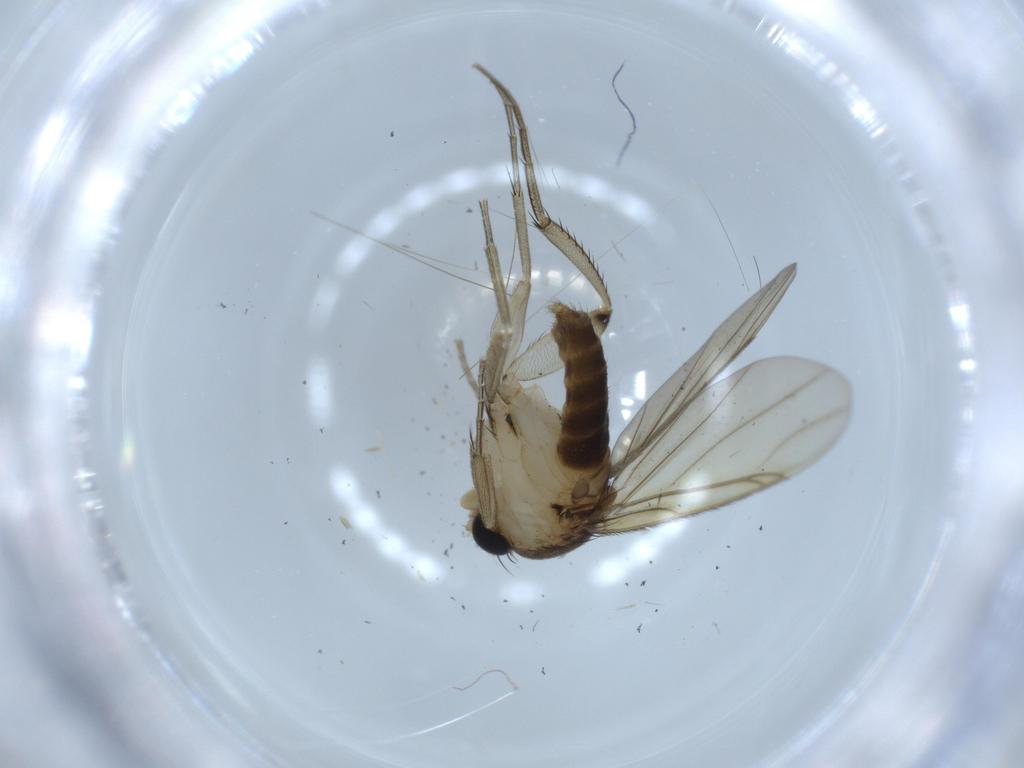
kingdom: Animalia
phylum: Arthropoda
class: Insecta
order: Diptera
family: Phoridae
